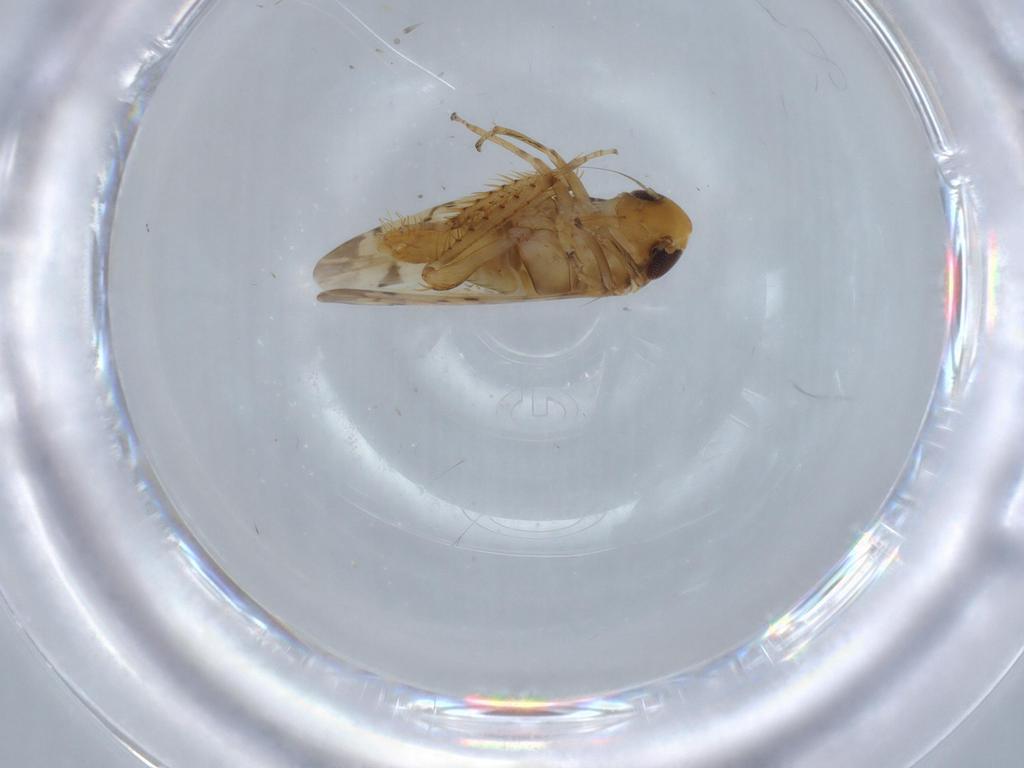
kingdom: Animalia
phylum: Arthropoda
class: Insecta
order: Hemiptera
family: Cicadellidae
